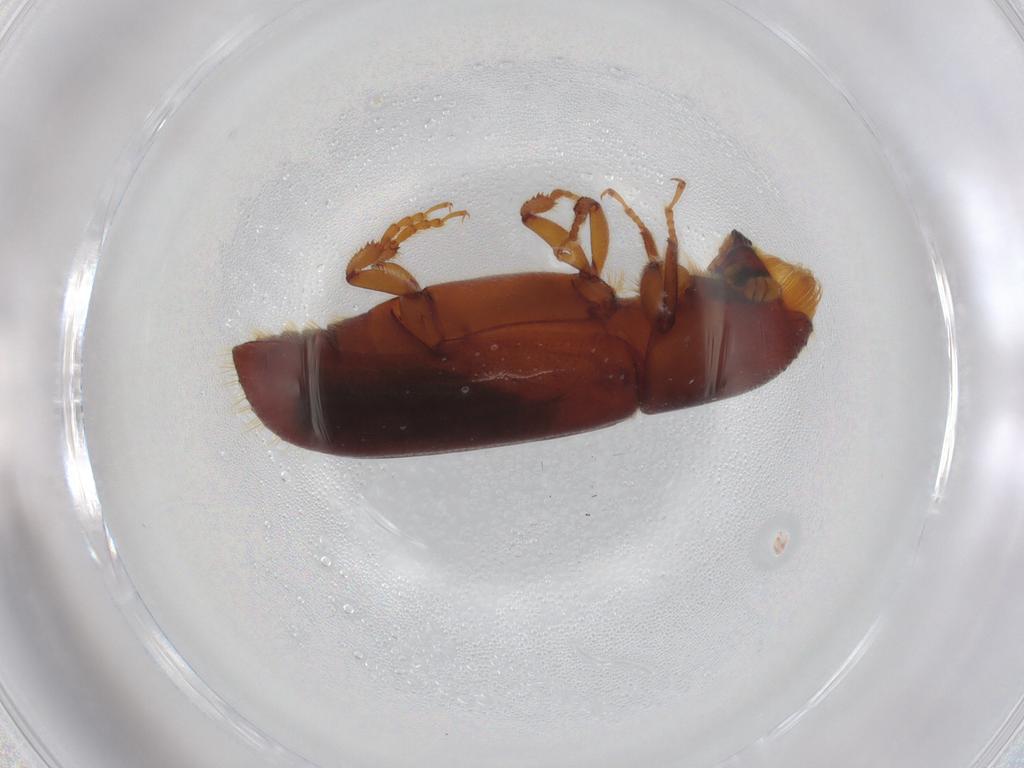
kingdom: Animalia
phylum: Arthropoda
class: Insecta
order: Coleoptera
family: Curculionidae
